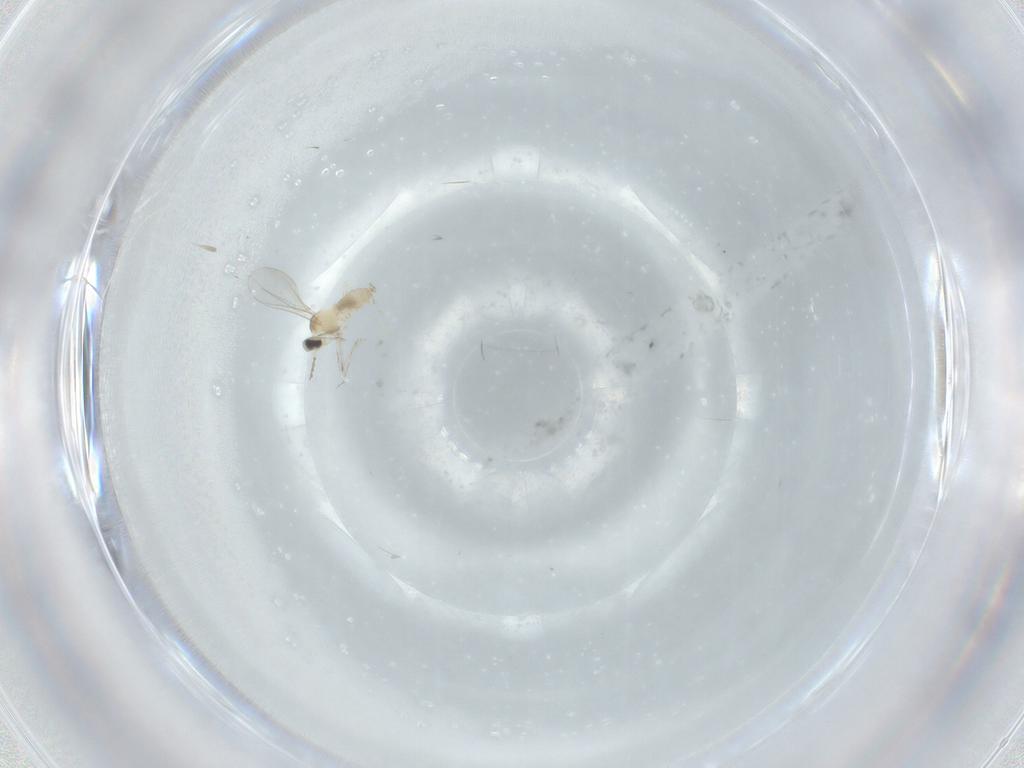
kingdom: Animalia
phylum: Arthropoda
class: Insecta
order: Diptera
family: Cecidomyiidae
